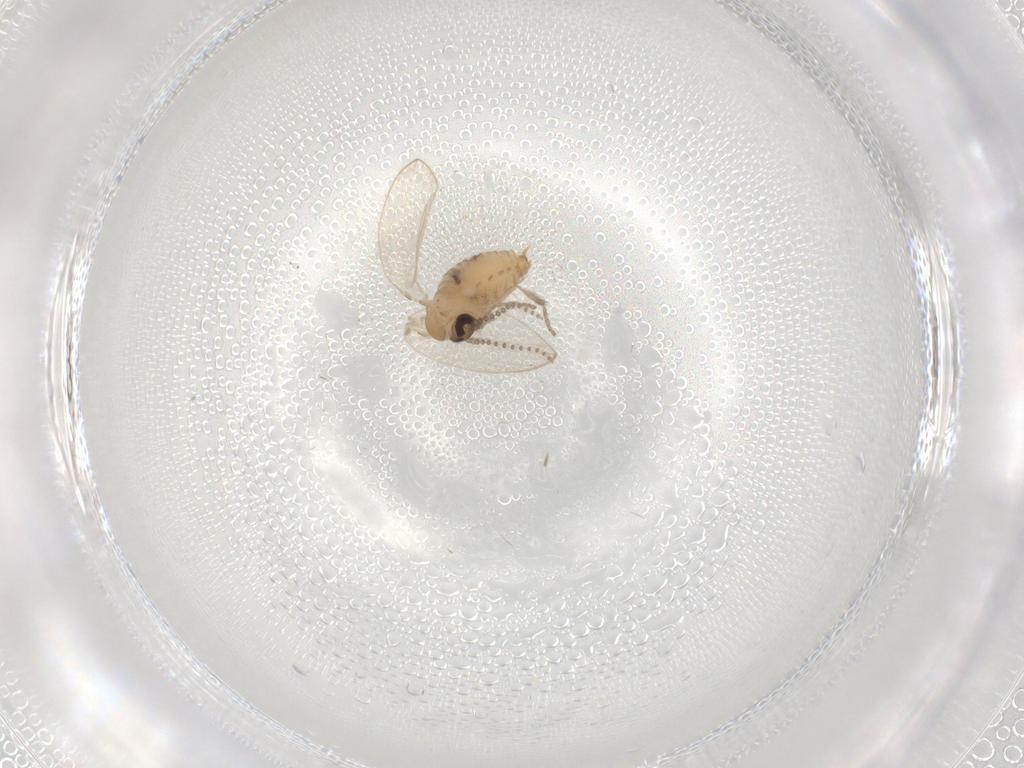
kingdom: Animalia
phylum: Arthropoda
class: Insecta
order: Diptera
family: Psychodidae
